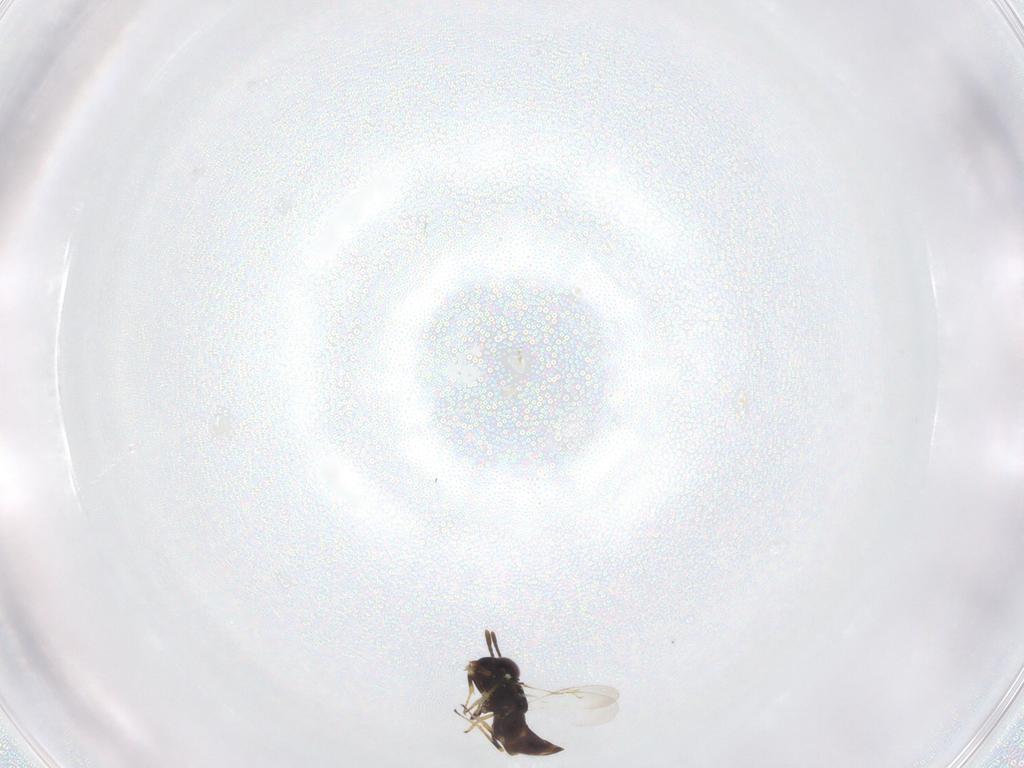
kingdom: Animalia
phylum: Arthropoda
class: Insecta
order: Hymenoptera
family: Encyrtidae
